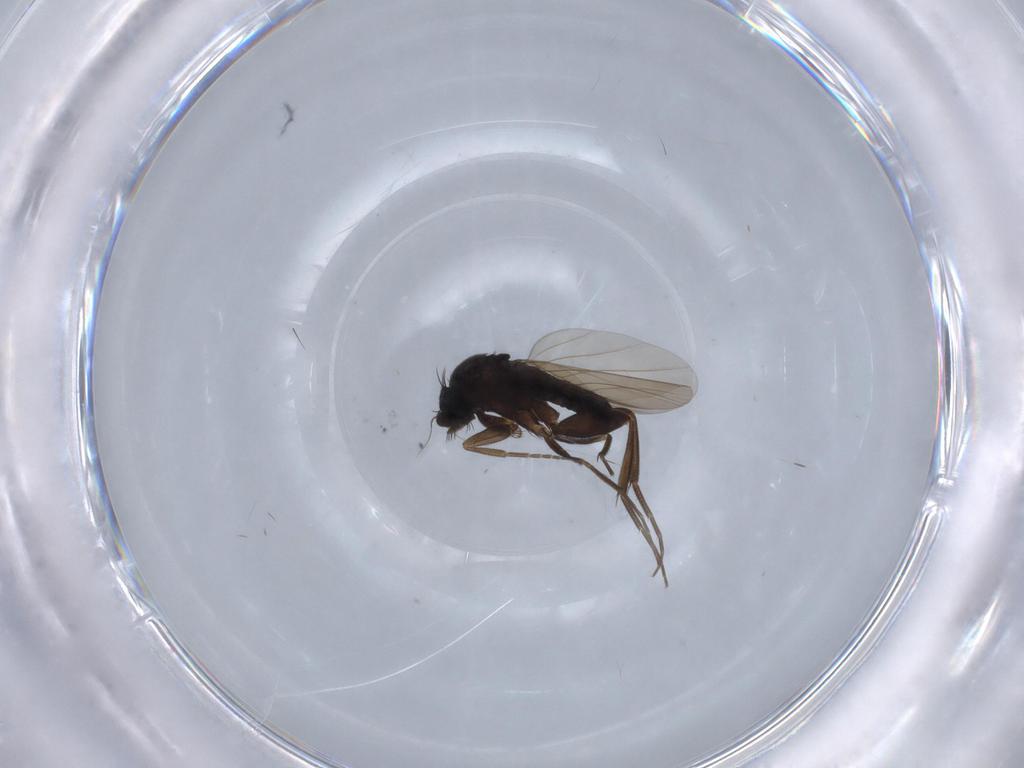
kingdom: Animalia
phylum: Arthropoda
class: Insecta
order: Diptera
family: Phoridae
